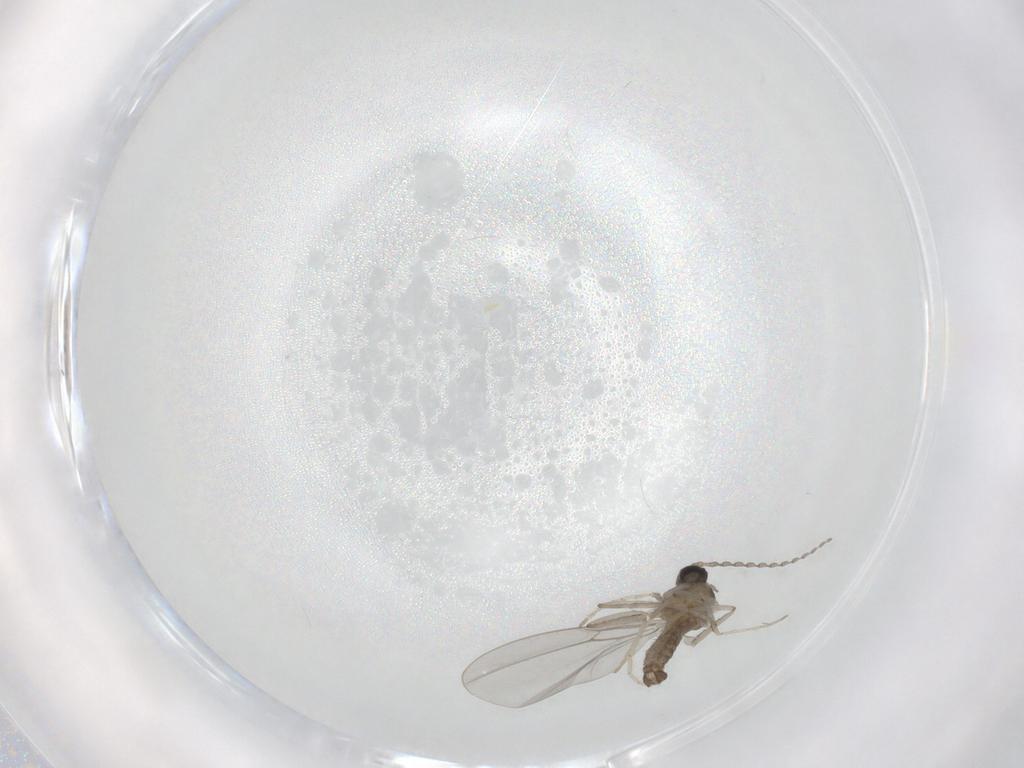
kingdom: Animalia
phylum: Arthropoda
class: Insecta
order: Diptera
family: Cecidomyiidae
